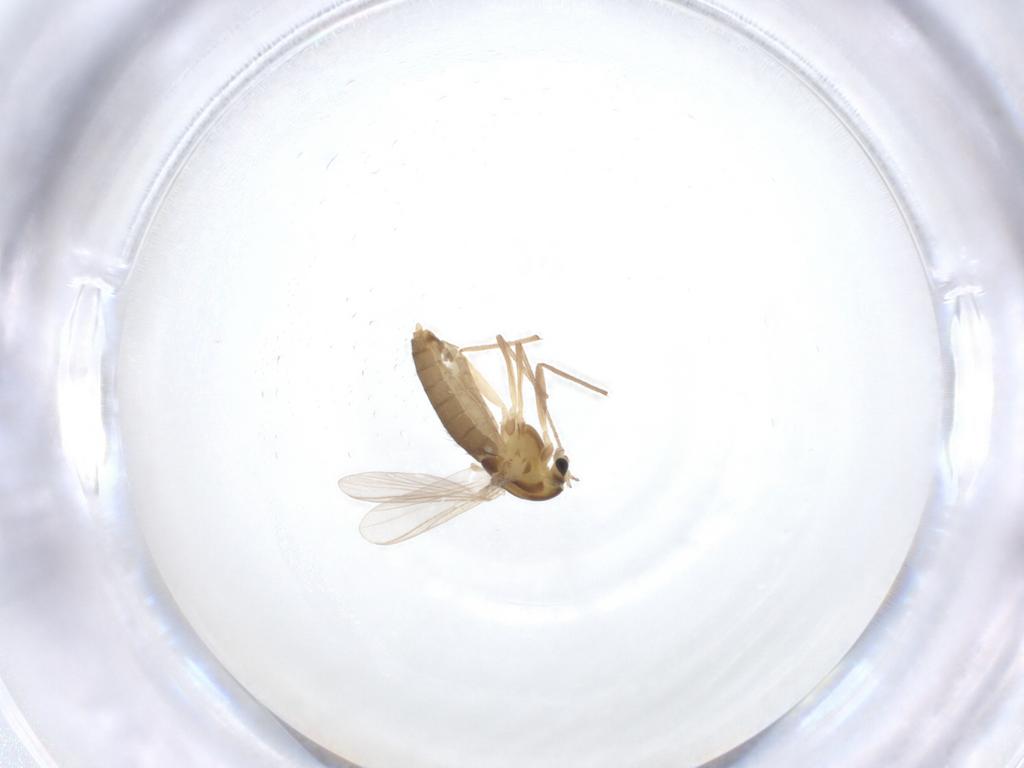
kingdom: Animalia
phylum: Arthropoda
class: Insecta
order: Diptera
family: Chironomidae
